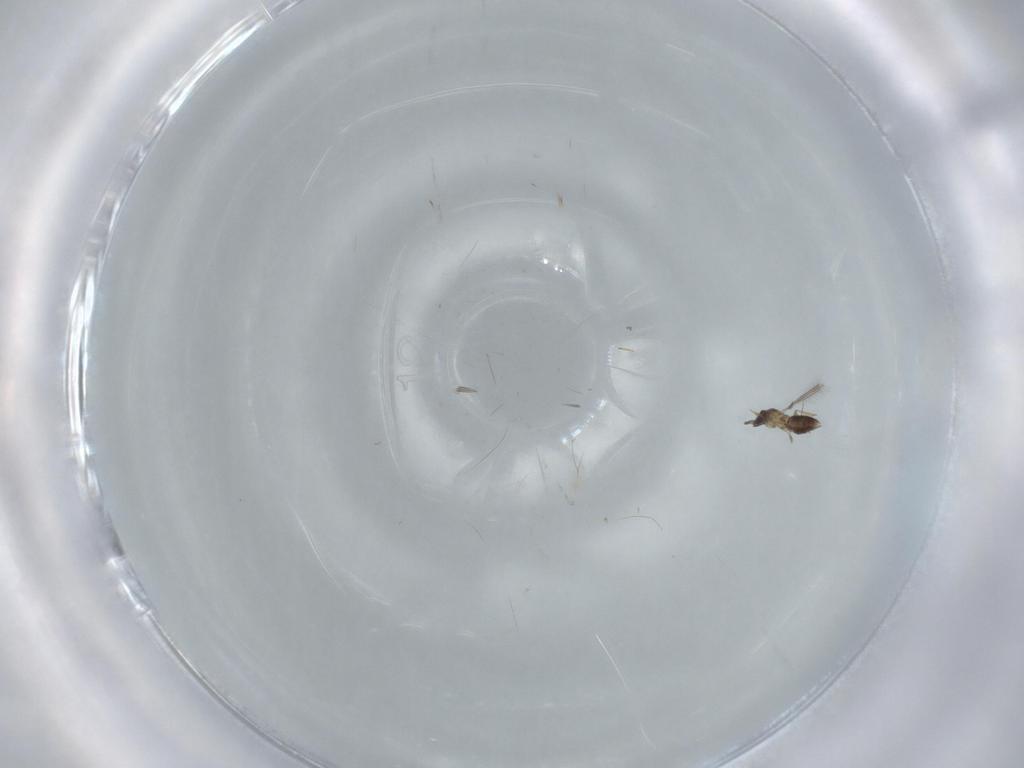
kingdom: Animalia
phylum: Arthropoda
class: Insecta
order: Hymenoptera
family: Mymaridae
